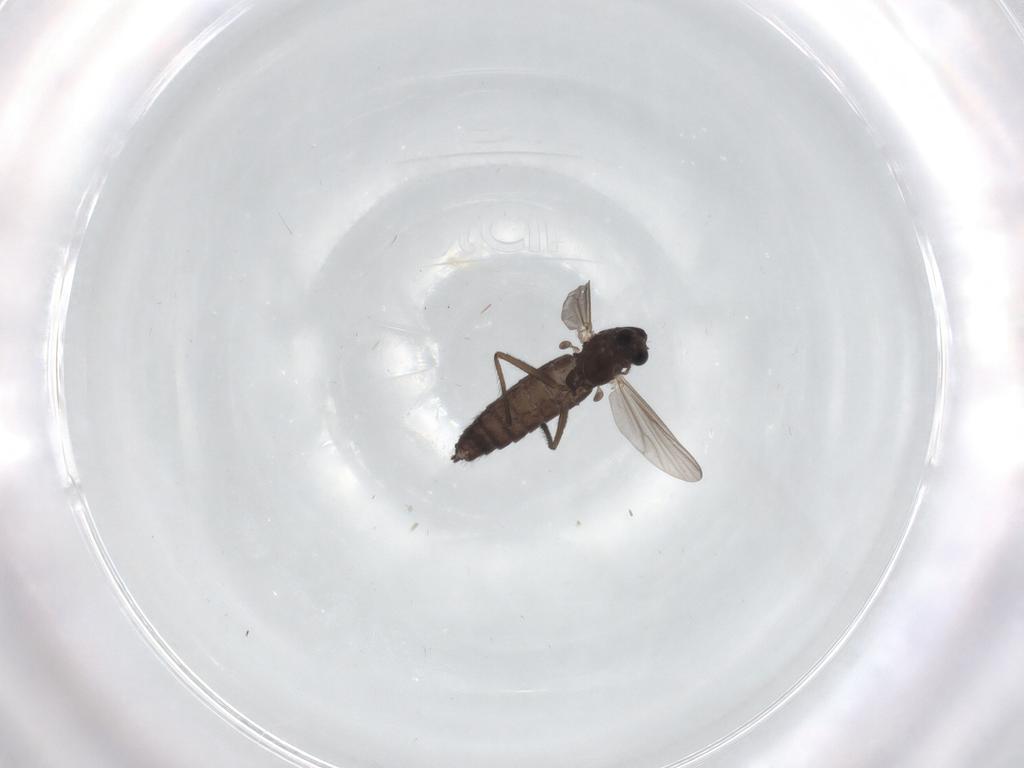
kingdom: Animalia
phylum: Arthropoda
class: Insecta
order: Diptera
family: Chironomidae
